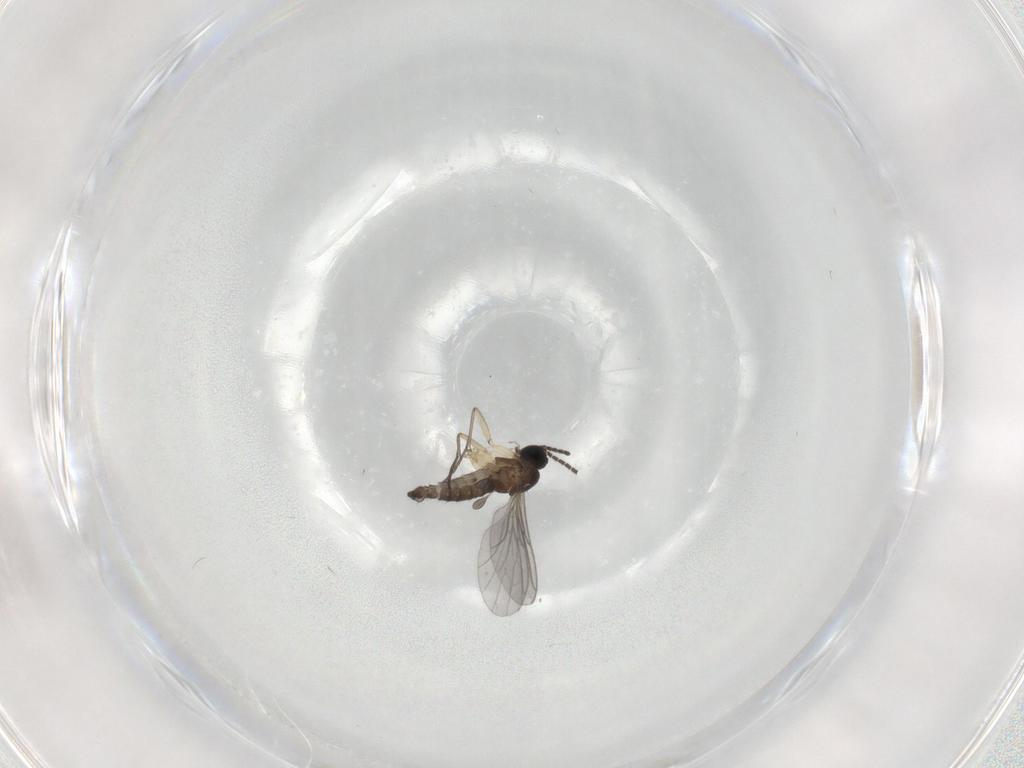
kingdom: Animalia
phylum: Arthropoda
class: Insecta
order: Diptera
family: Sciaridae
